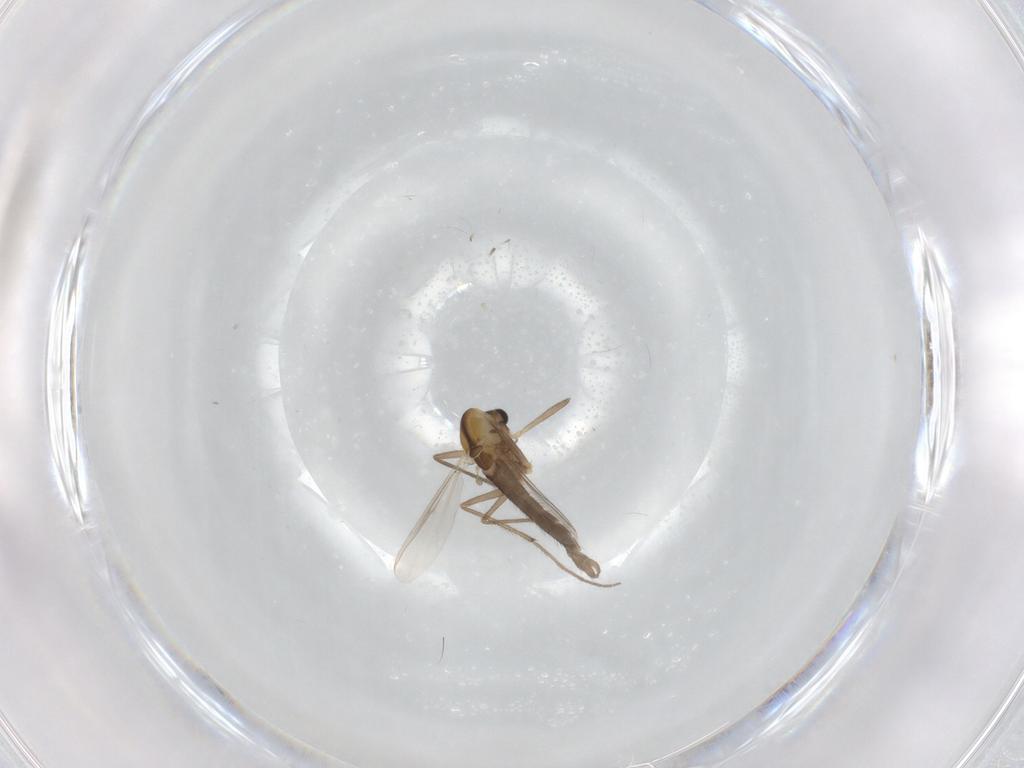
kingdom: Animalia
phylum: Arthropoda
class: Insecta
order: Diptera
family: Chironomidae
